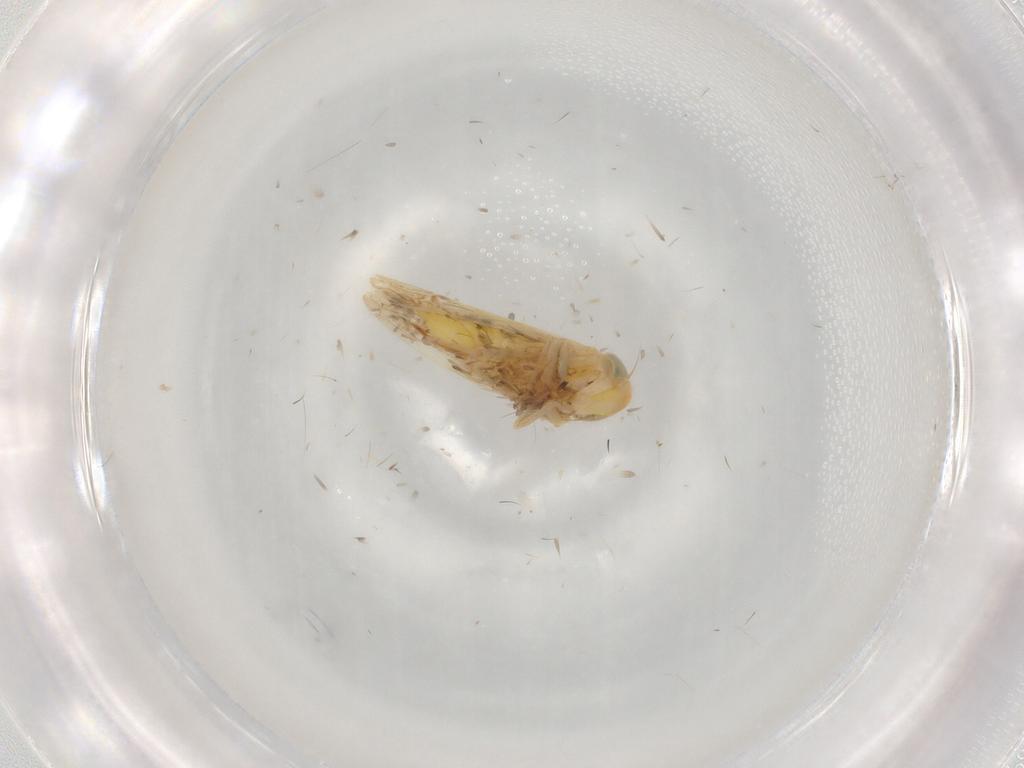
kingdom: Animalia
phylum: Arthropoda
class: Insecta
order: Hemiptera
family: Cicadellidae
